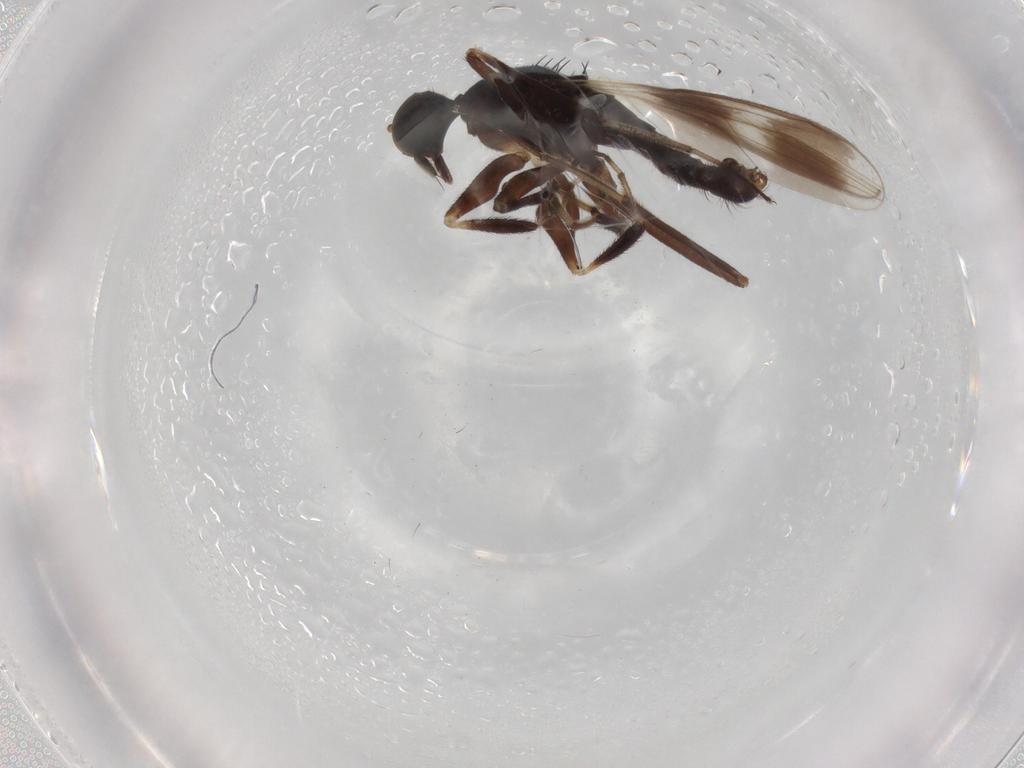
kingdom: Animalia
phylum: Arthropoda
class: Insecta
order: Diptera
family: Hybotidae
